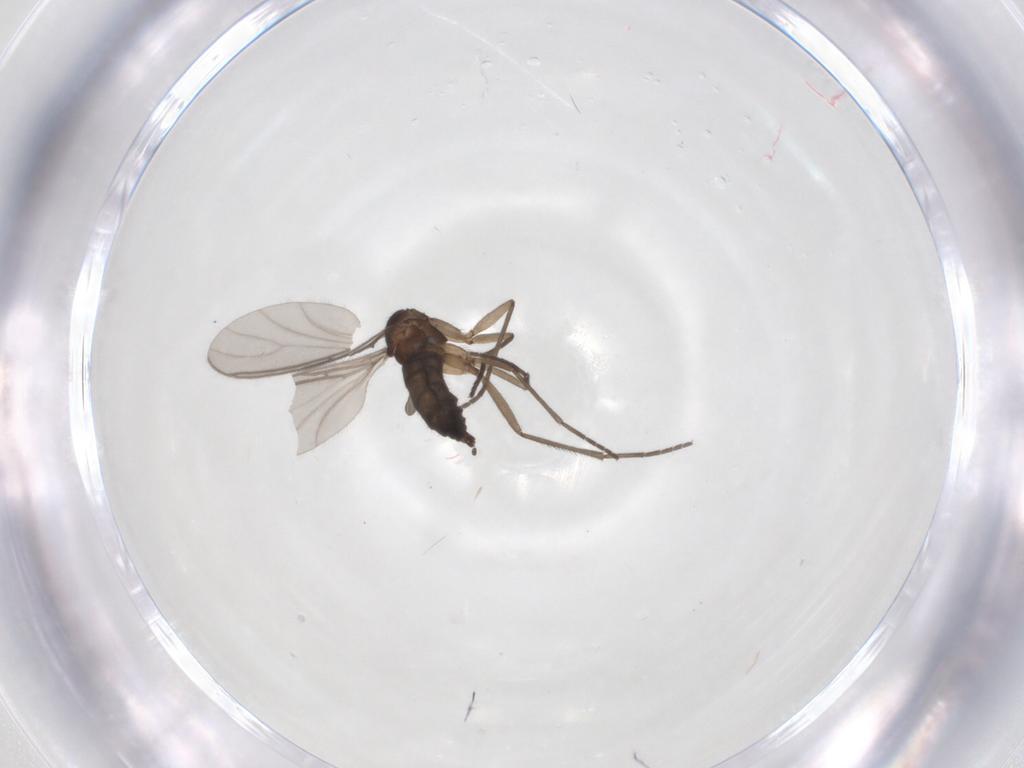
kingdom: Animalia
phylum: Arthropoda
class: Insecta
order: Diptera
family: Sciaridae
